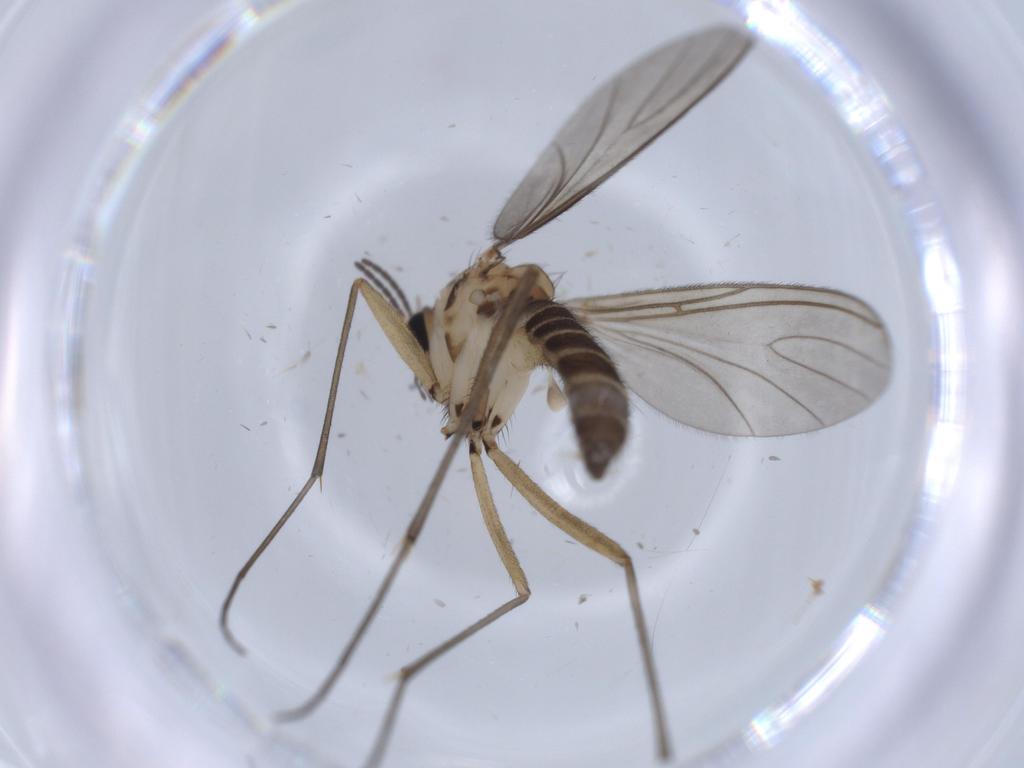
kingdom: Animalia
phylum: Arthropoda
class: Insecta
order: Diptera
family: Sciaridae
